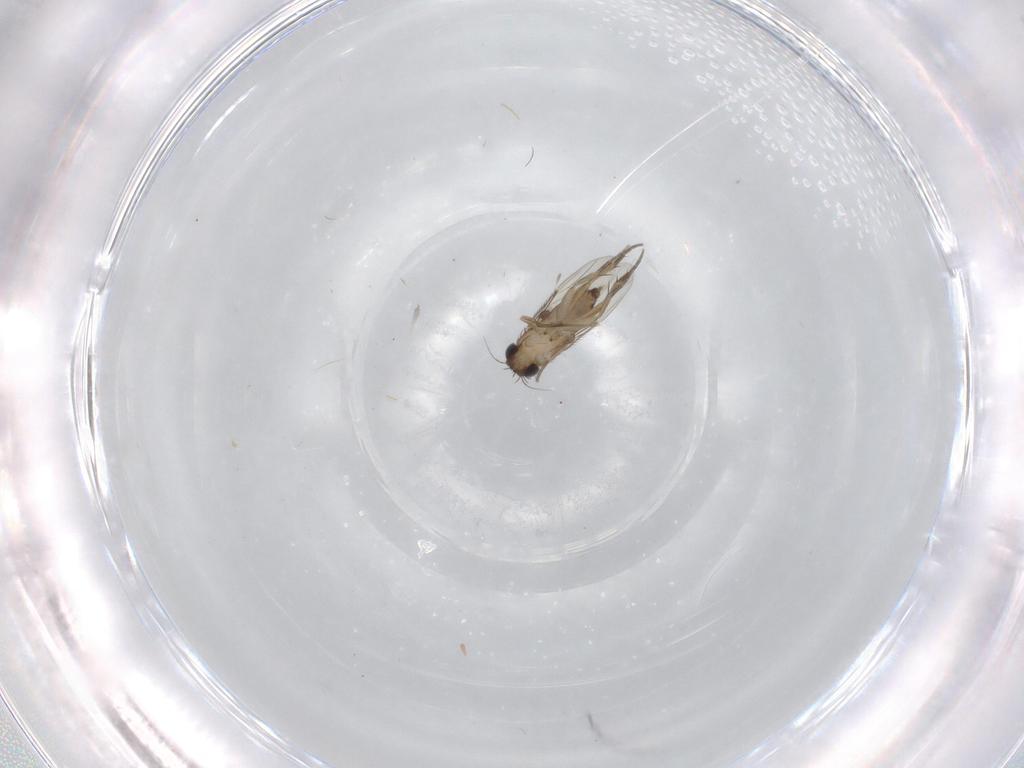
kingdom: Animalia
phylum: Arthropoda
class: Insecta
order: Diptera
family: Phoridae
